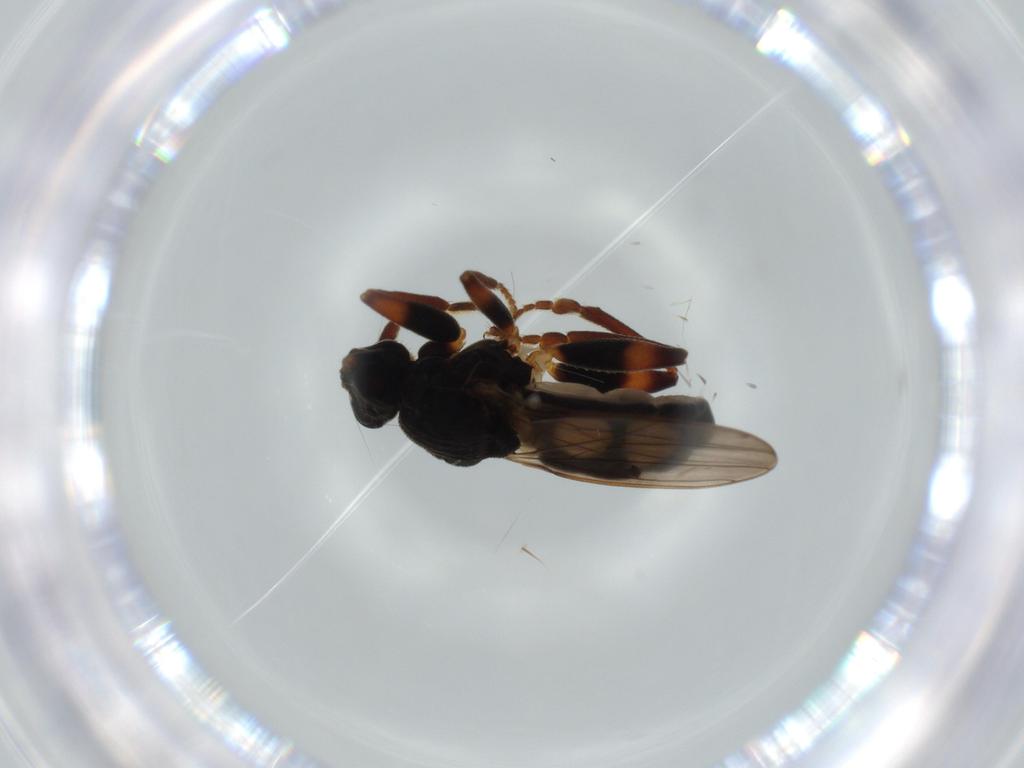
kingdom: Animalia
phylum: Arthropoda
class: Insecta
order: Diptera
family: Sphaeroceridae
